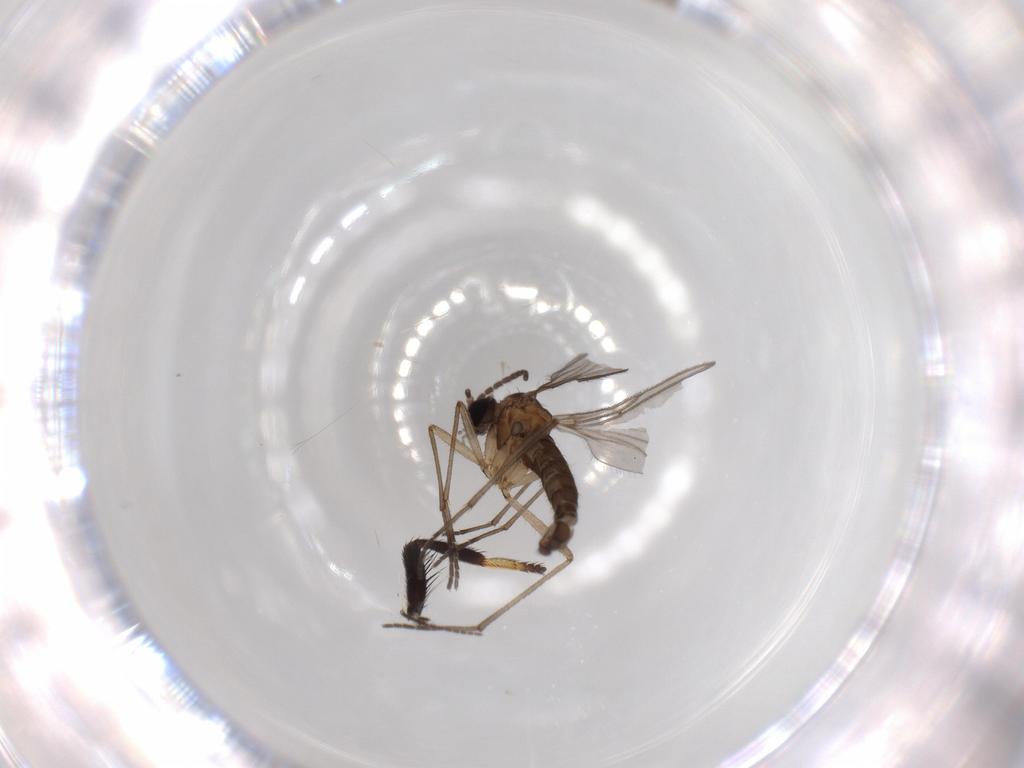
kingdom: Animalia
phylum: Arthropoda
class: Insecta
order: Diptera
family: Lonchaeidae
